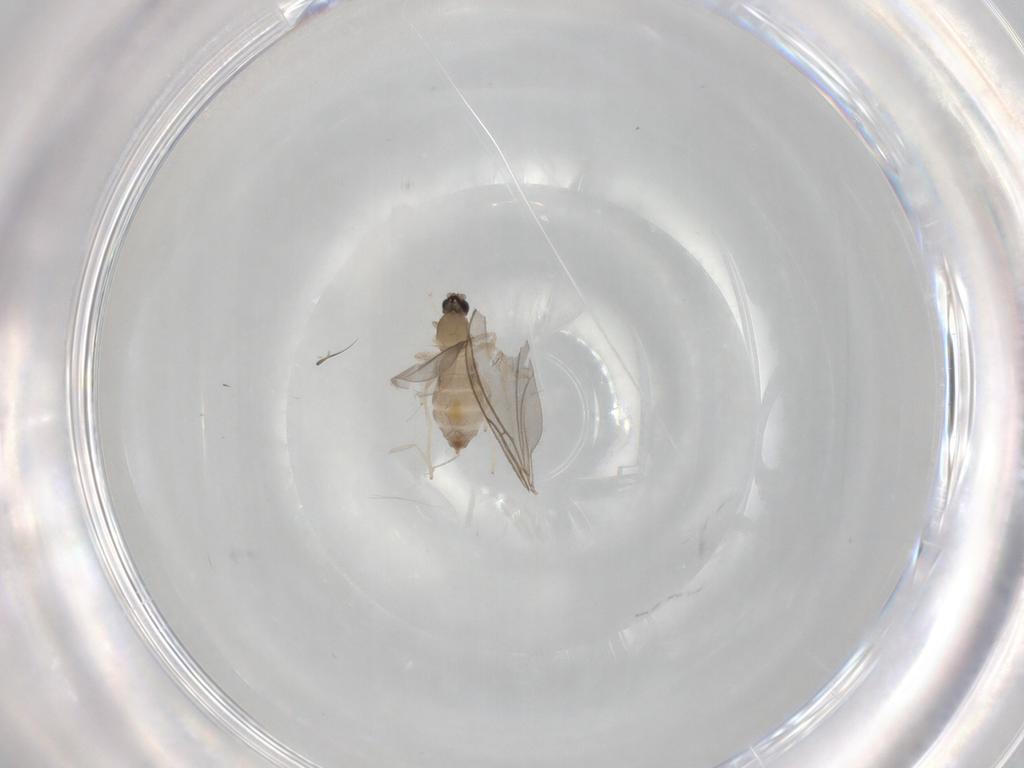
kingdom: Animalia
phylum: Arthropoda
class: Insecta
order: Diptera
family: Cecidomyiidae
